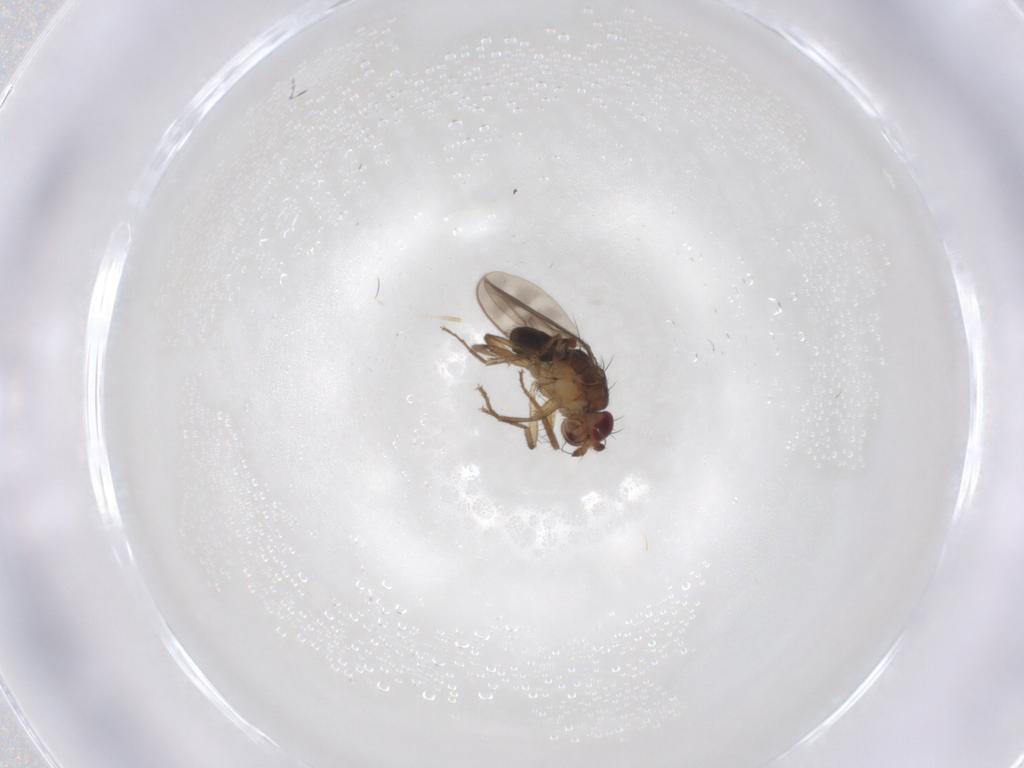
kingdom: Animalia
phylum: Arthropoda
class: Insecta
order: Diptera
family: Sphaeroceridae
